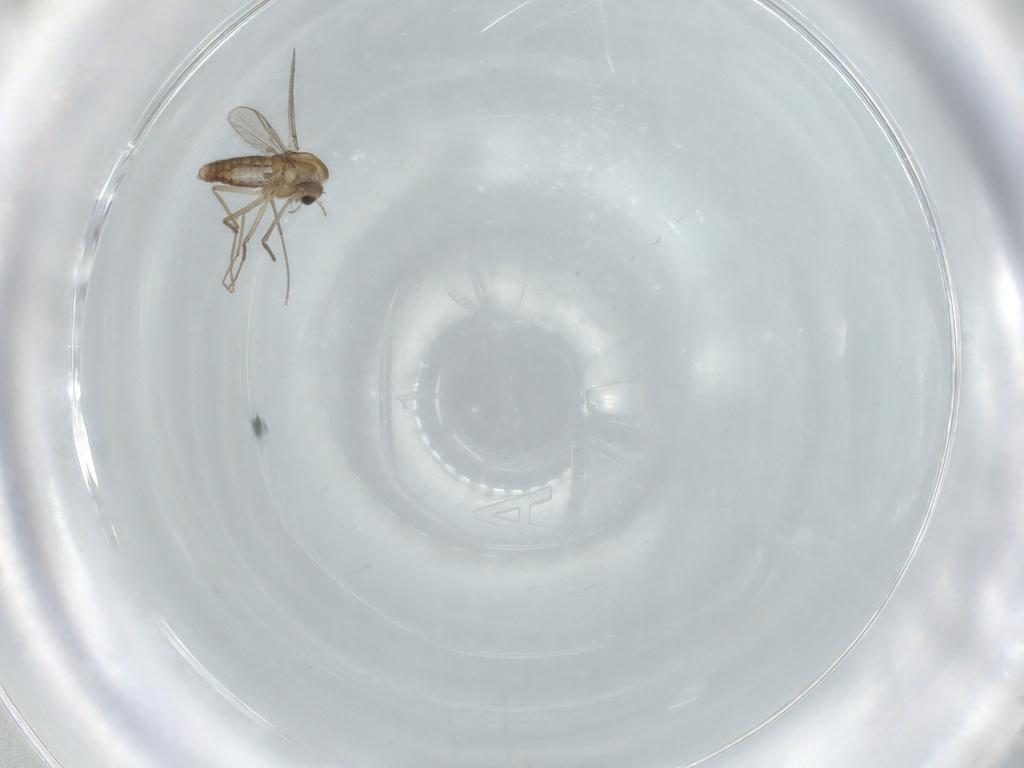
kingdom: Animalia
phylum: Arthropoda
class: Insecta
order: Diptera
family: Chironomidae
